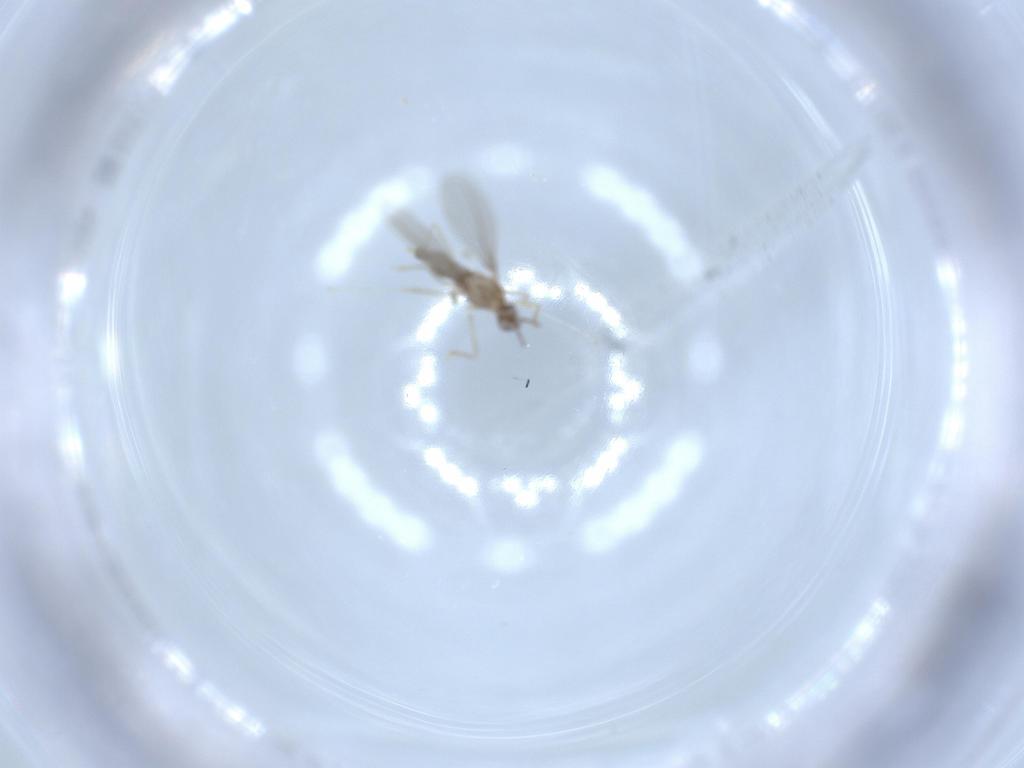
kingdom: Animalia
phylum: Arthropoda
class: Insecta
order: Diptera
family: Cecidomyiidae
